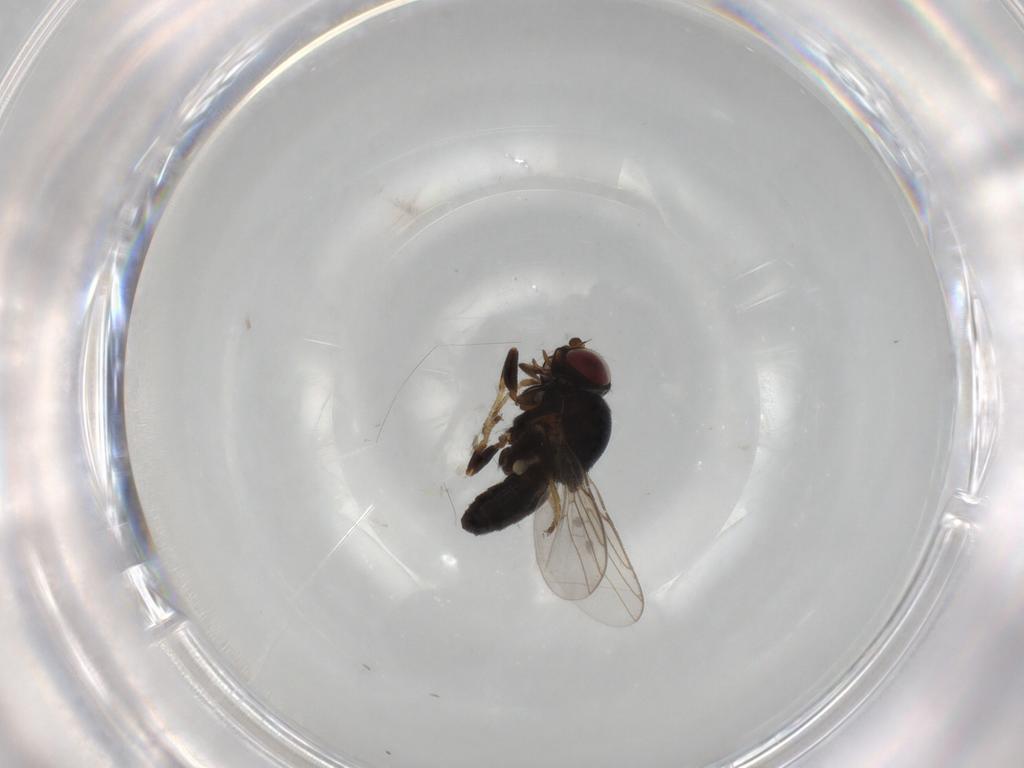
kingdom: Animalia
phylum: Arthropoda
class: Insecta
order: Diptera
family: Chloropidae
